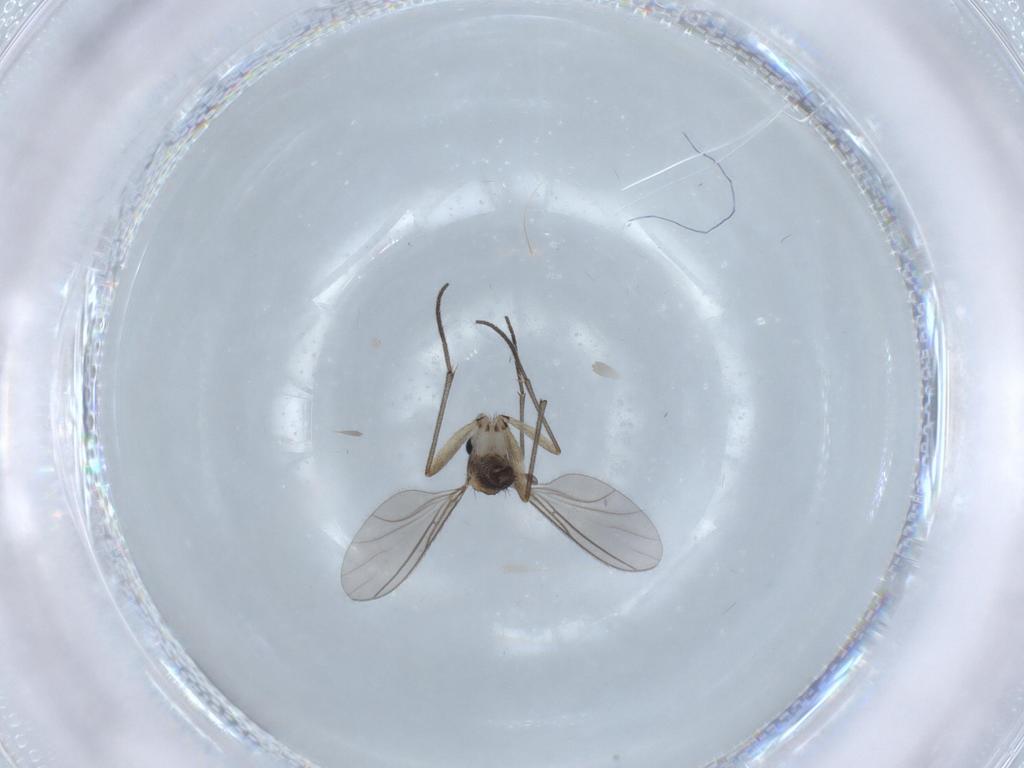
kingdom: Animalia
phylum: Arthropoda
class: Insecta
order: Diptera
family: Sciaridae
